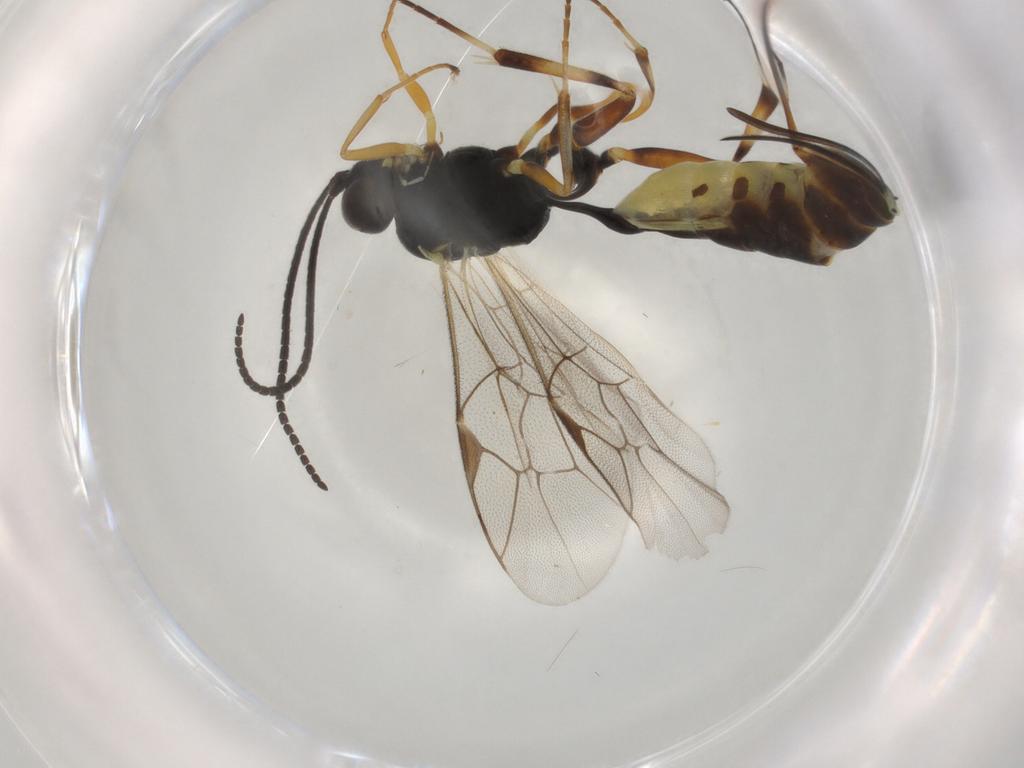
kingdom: Animalia
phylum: Arthropoda
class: Insecta
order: Hymenoptera
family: Ichneumonidae
